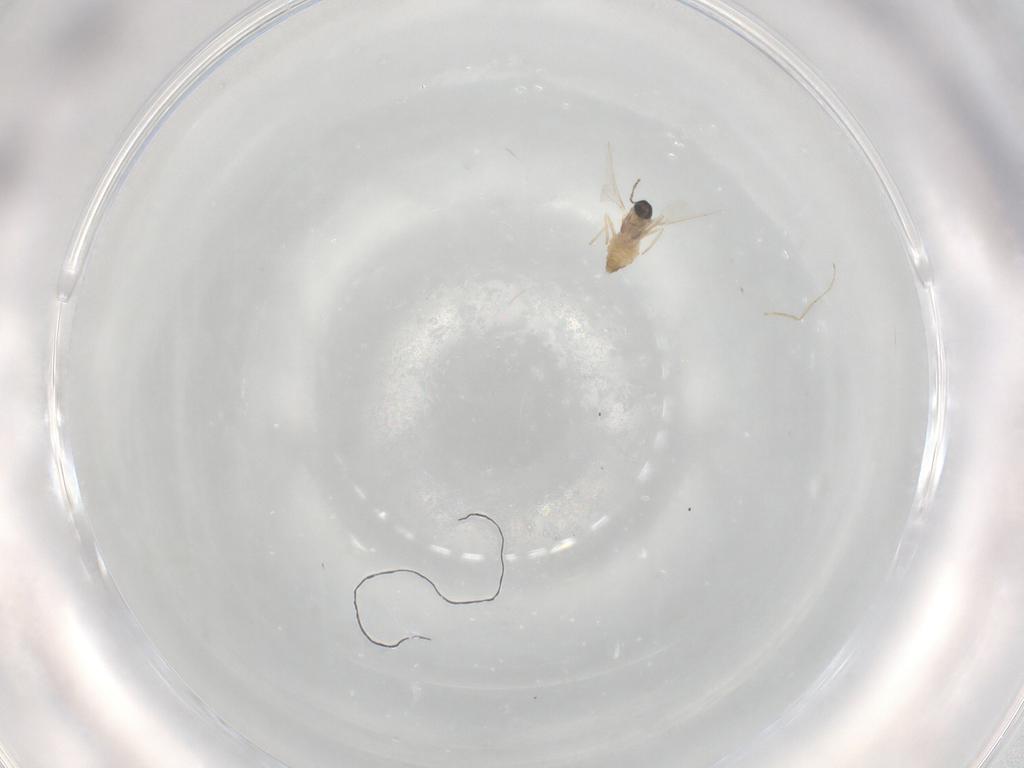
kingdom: Animalia
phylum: Arthropoda
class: Insecta
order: Diptera
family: Cecidomyiidae
